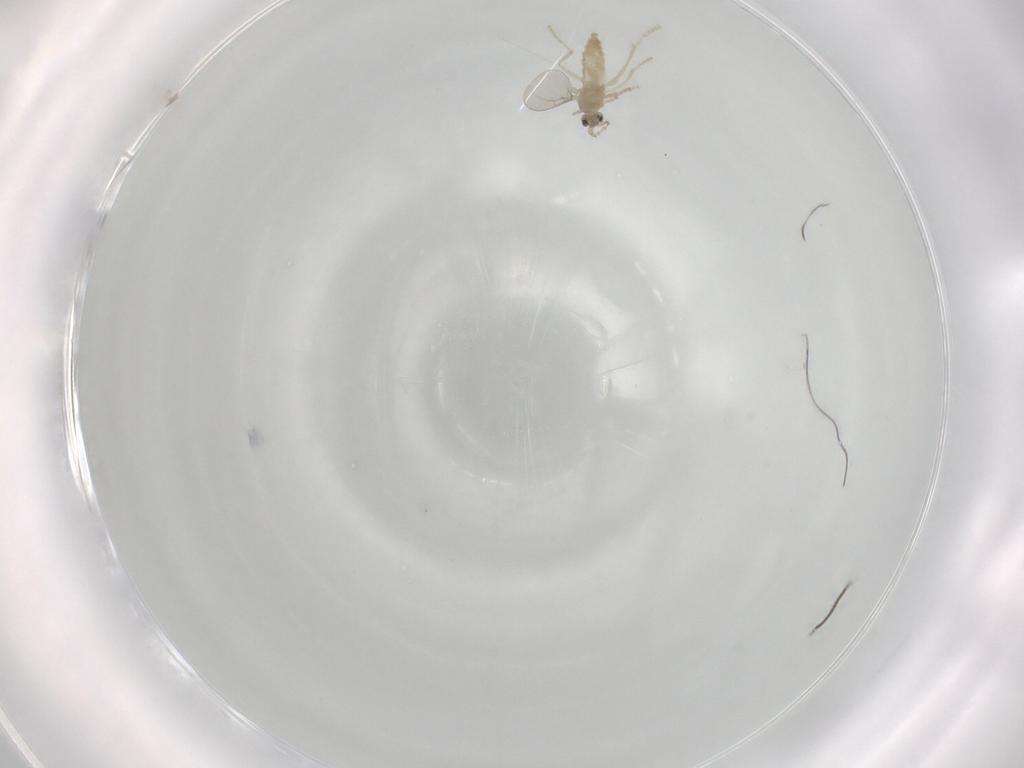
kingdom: Animalia
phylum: Arthropoda
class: Insecta
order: Diptera
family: Cecidomyiidae
